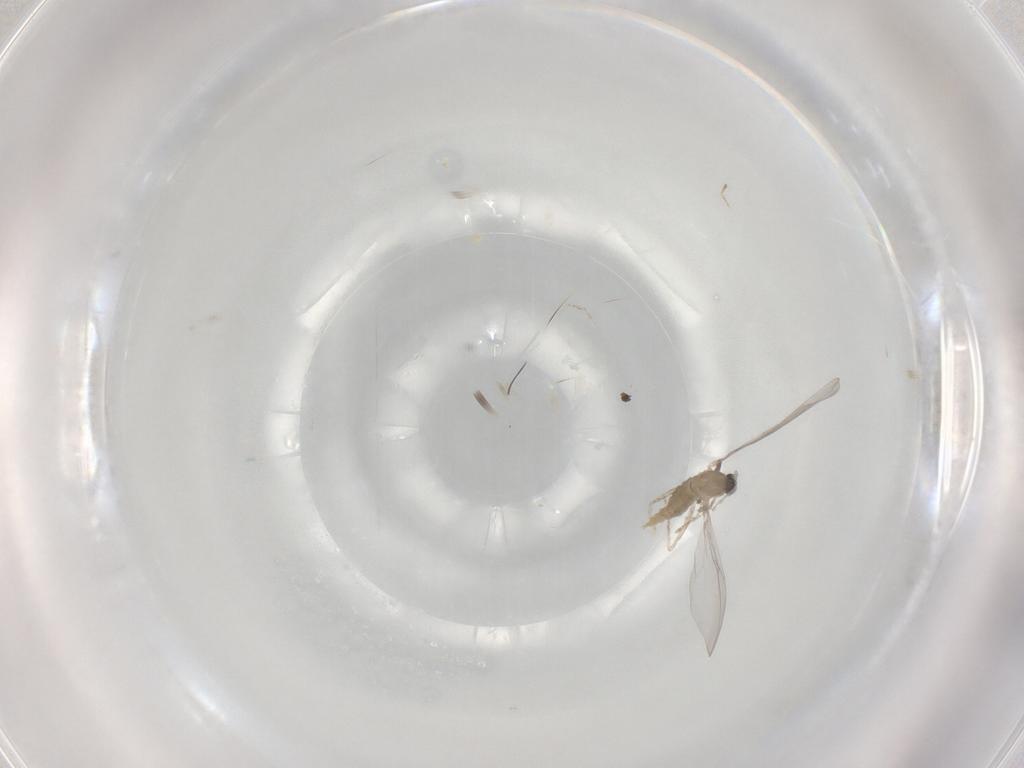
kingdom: Animalia
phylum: Arthropoda
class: Insecta
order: Diptera
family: Cecidomyiidae
